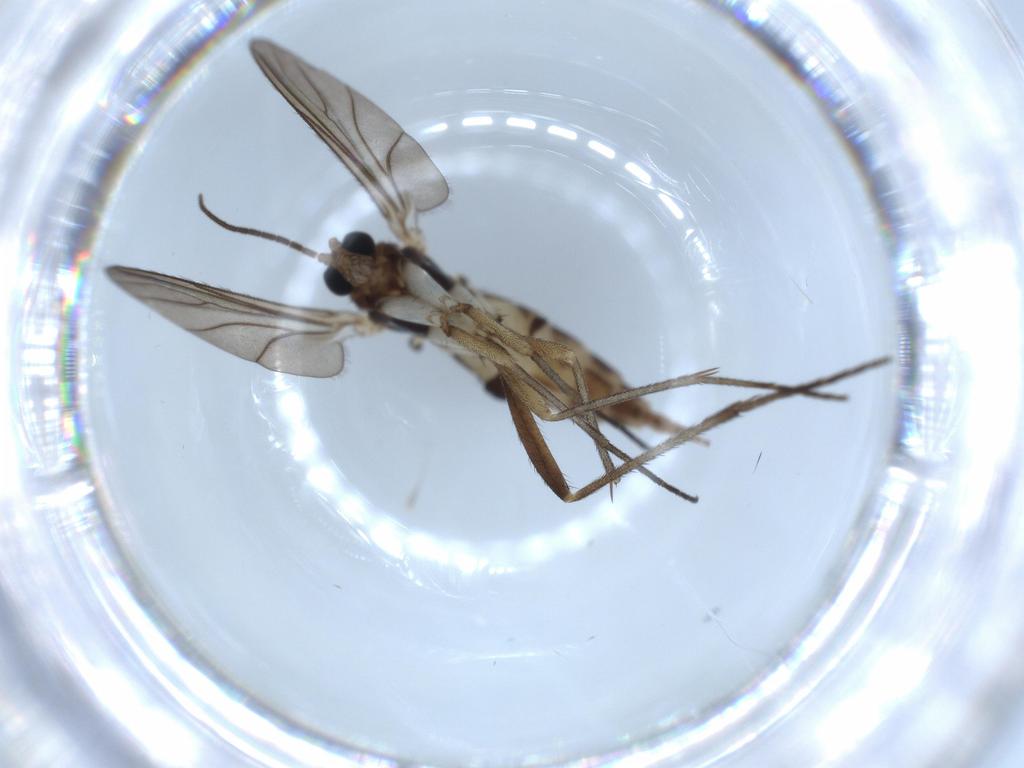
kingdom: Animalia
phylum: Arthropoda
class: Insecta
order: Diptera
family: Sciaridae
